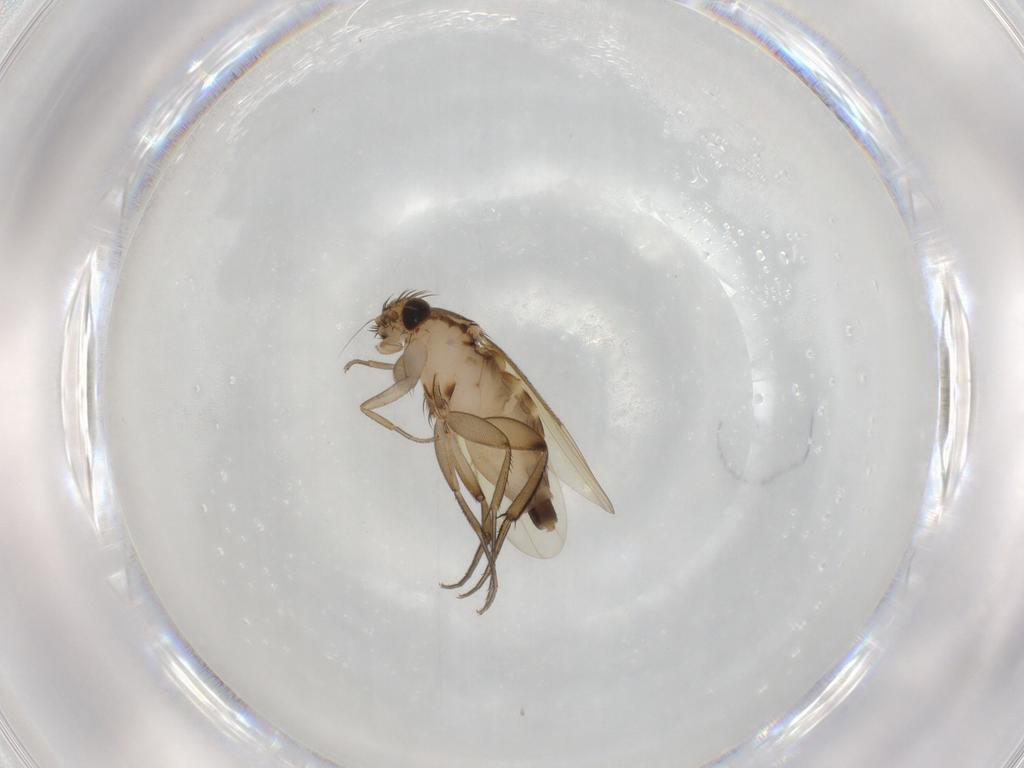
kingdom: Animalia
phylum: Arthropoda
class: Insecta
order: Diptera
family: Phoridae
